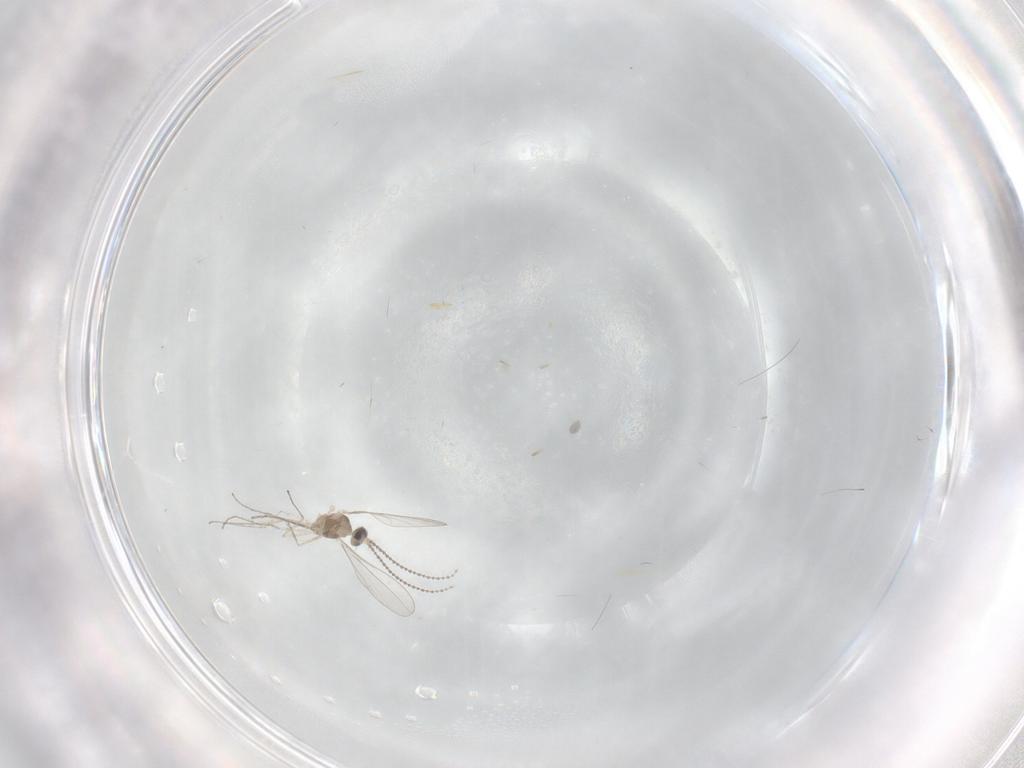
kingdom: Animalia
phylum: Arthropoda
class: Insecta
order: Diptera
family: Cecidomyiidae
